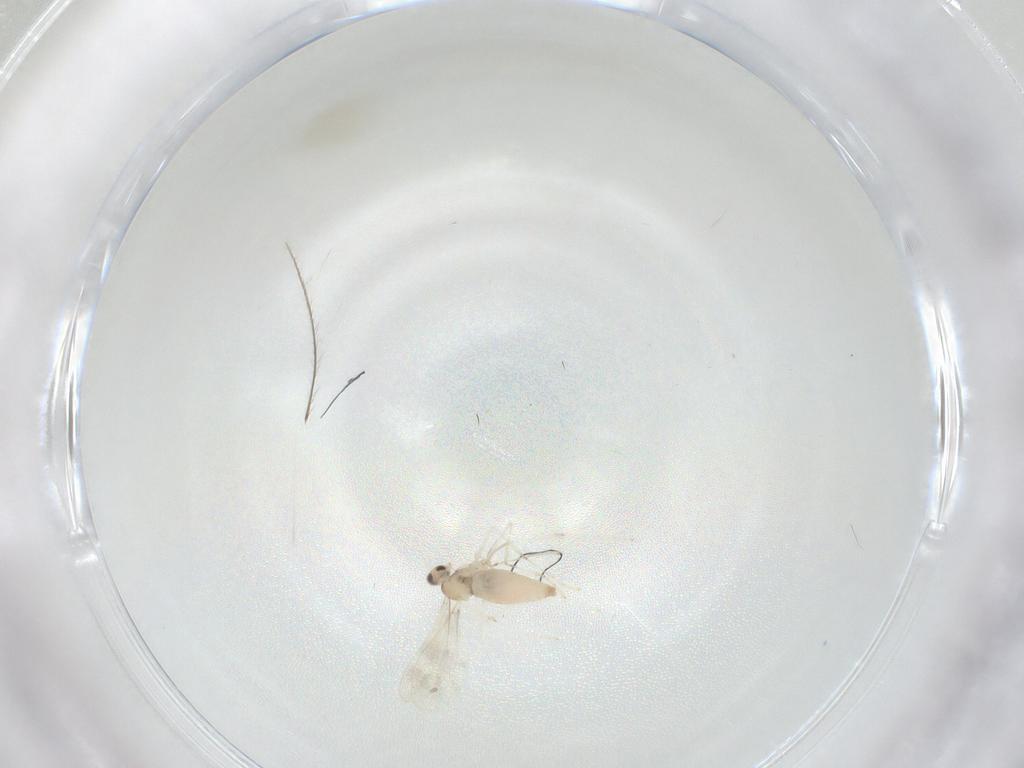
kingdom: Animalia
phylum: Arthropoda
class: Insecta
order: Diptera
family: Cecidomyiidae
